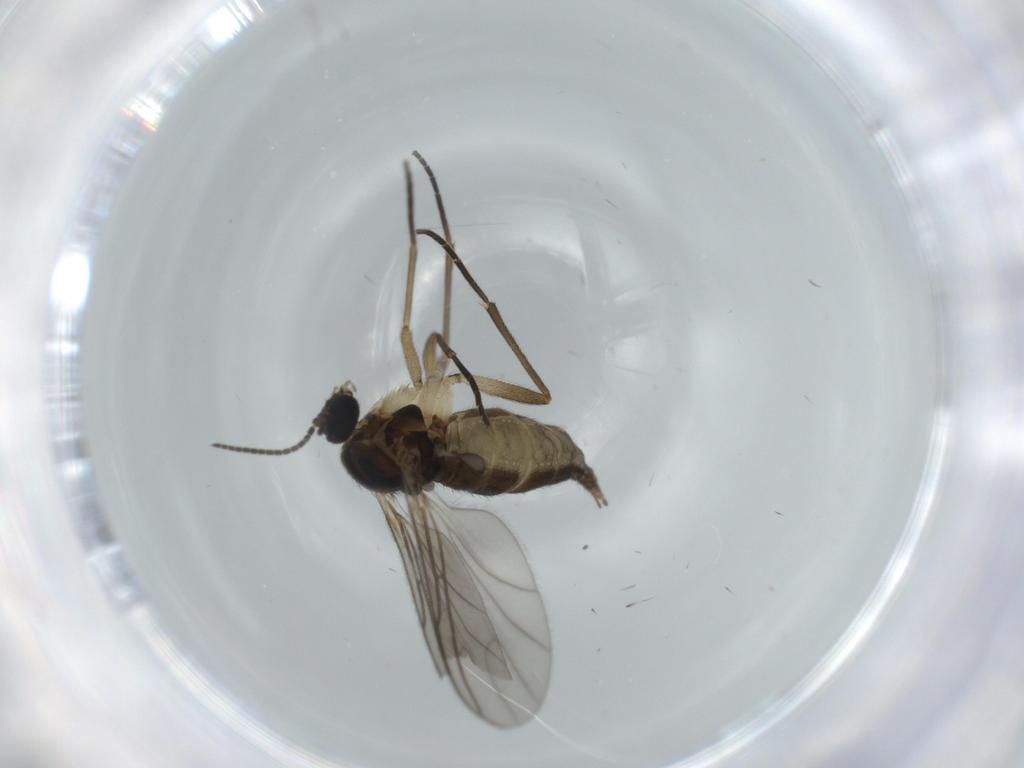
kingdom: Animalia
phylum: Arthropoda
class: Insecta
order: Diptera
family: Sciaridae
